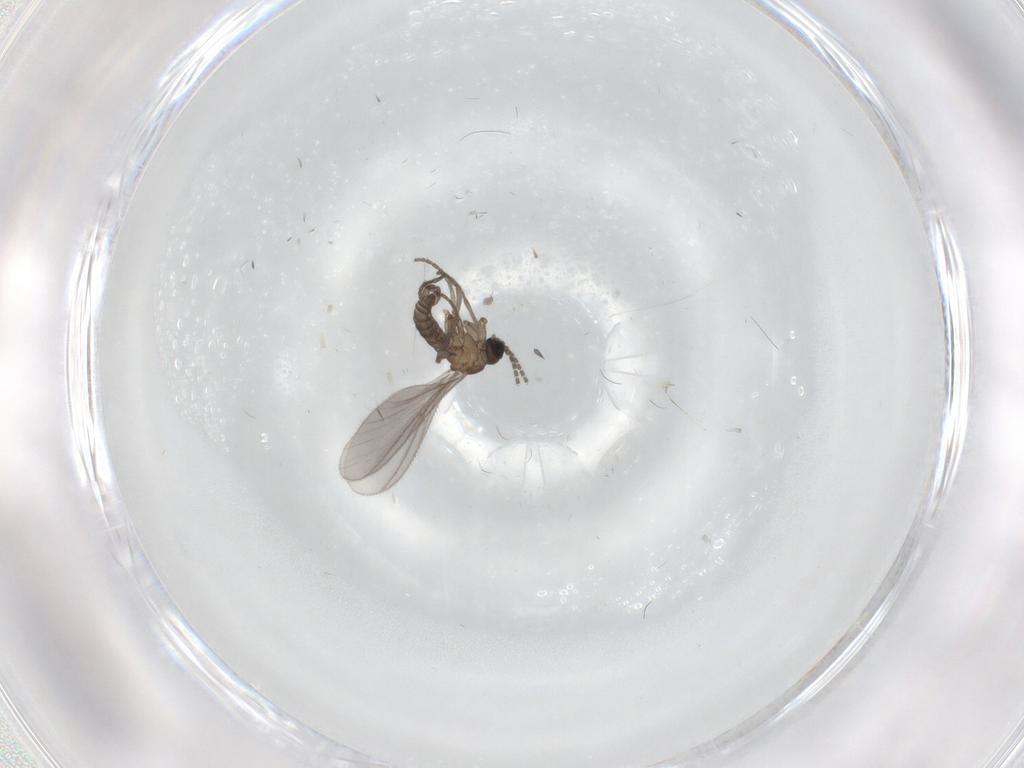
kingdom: Animalia
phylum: Arthropoda
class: Insecta
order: Diptera
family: Sciaridae
